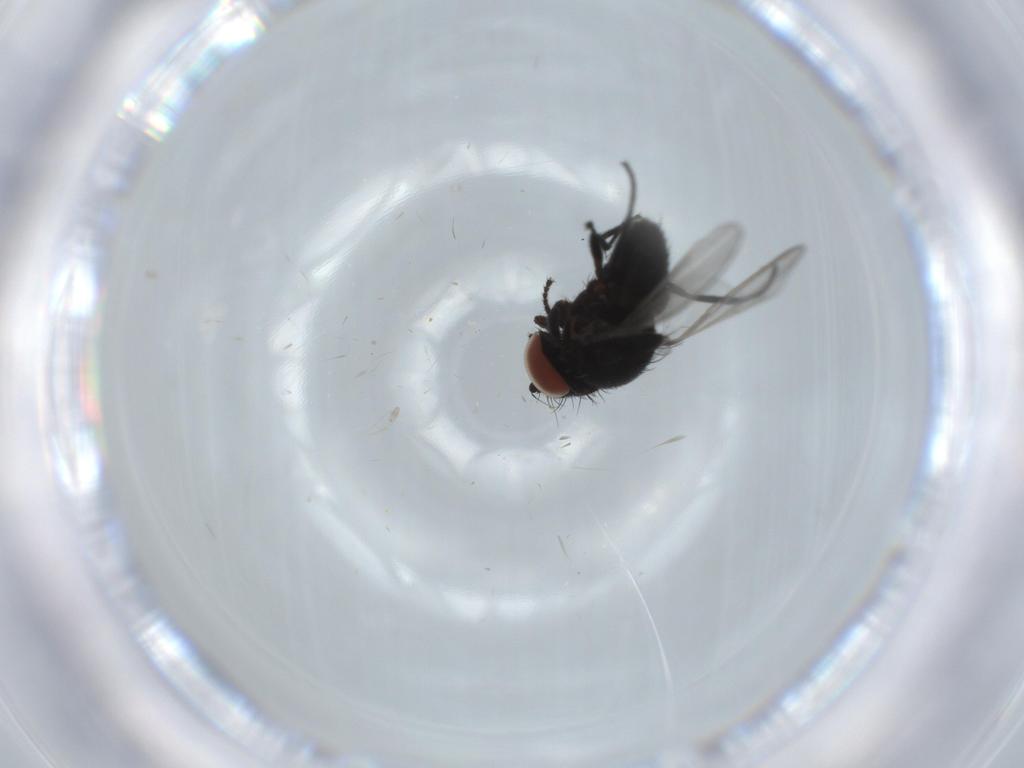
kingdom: Animalia
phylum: Arthropoda
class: Insecta
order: Diptera
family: Milichiidae
